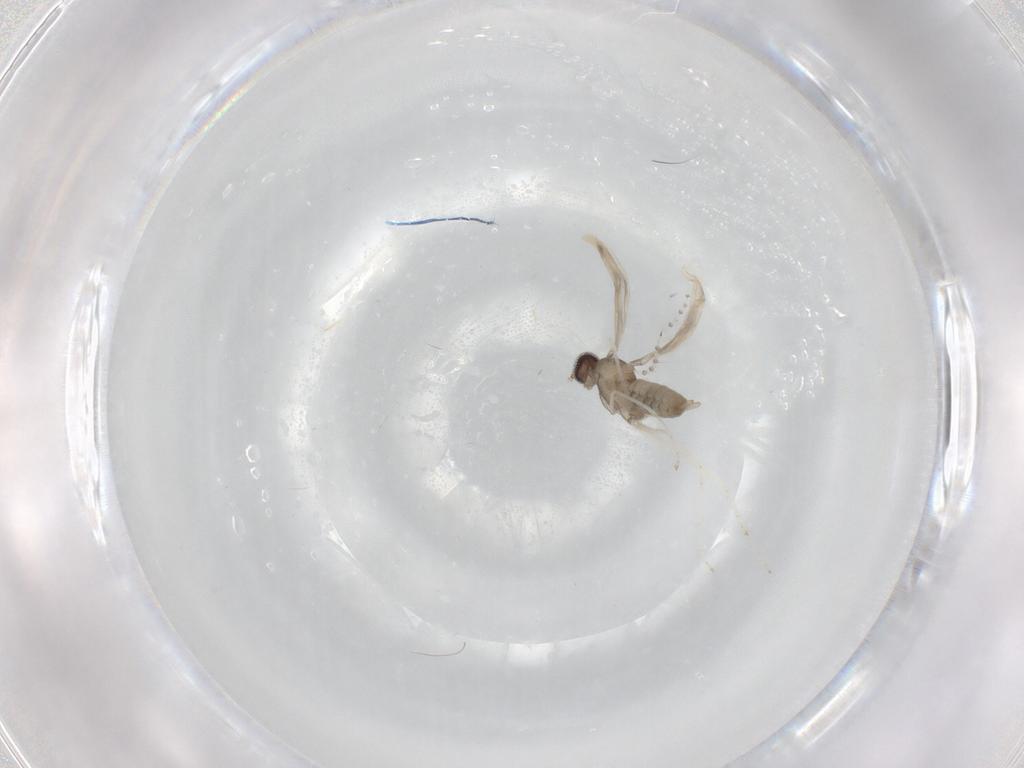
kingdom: Animalia
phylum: Arthropoda
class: Insecta
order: Diptera
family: Cecidomyiidae
